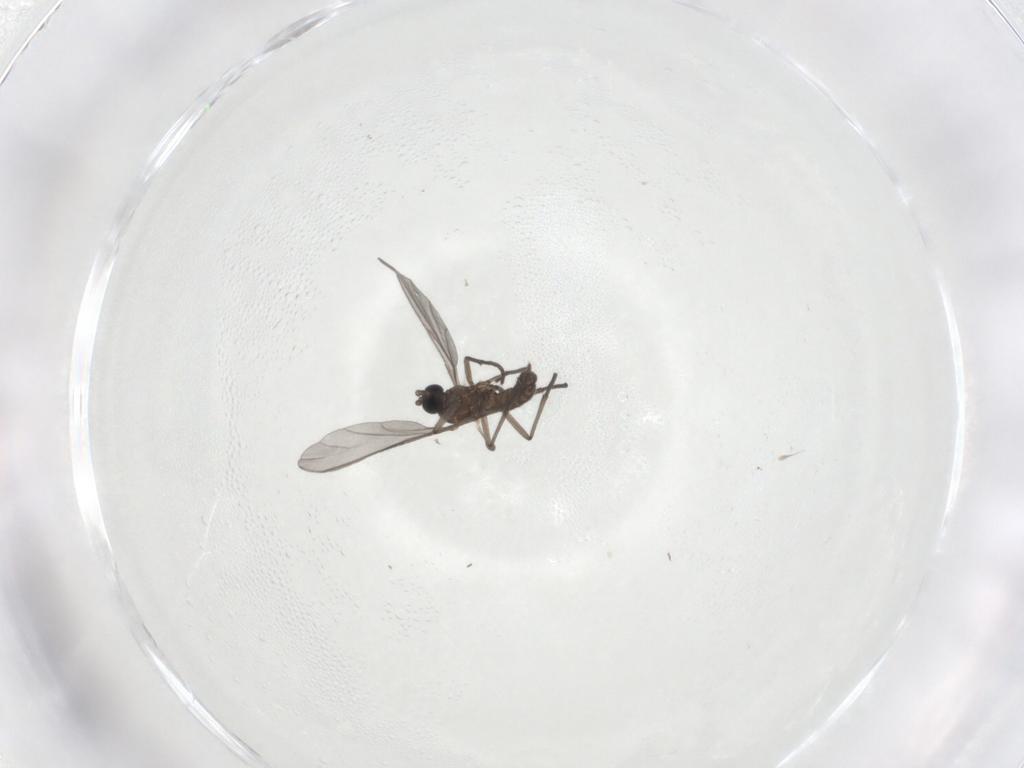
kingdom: Animalia
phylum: Arthropoda
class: Insecta
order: Diptera
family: Sciaridae
